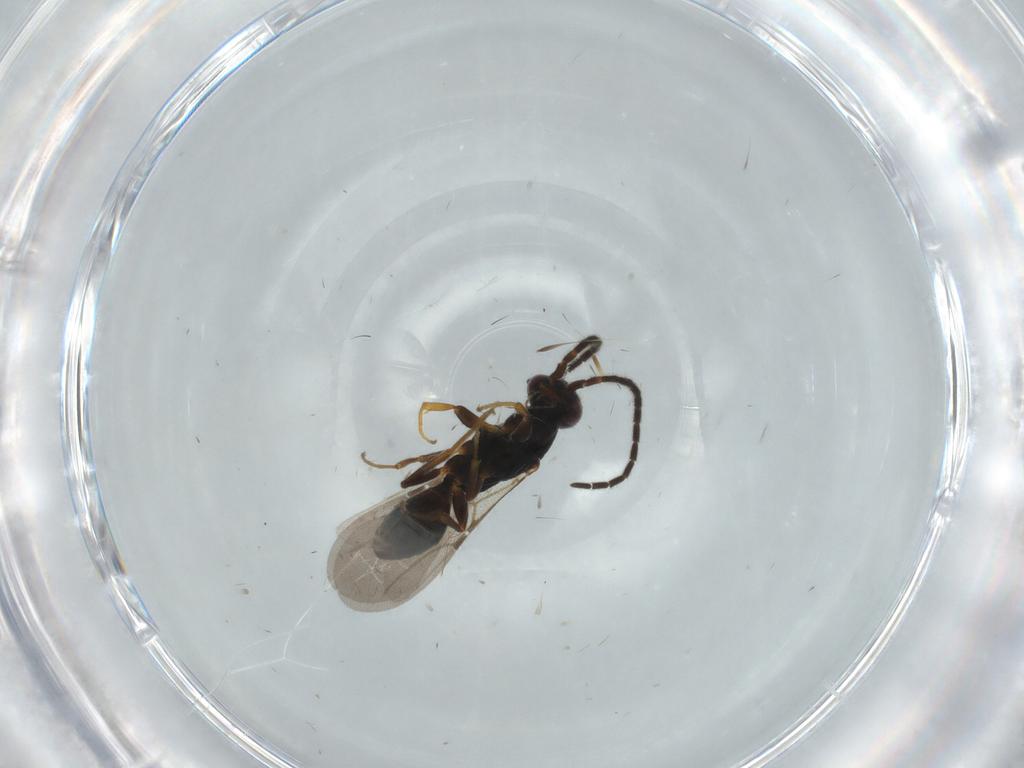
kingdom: Animalia
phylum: Arthropoda
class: Insecta
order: Hymenoptera
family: Bethylidae
